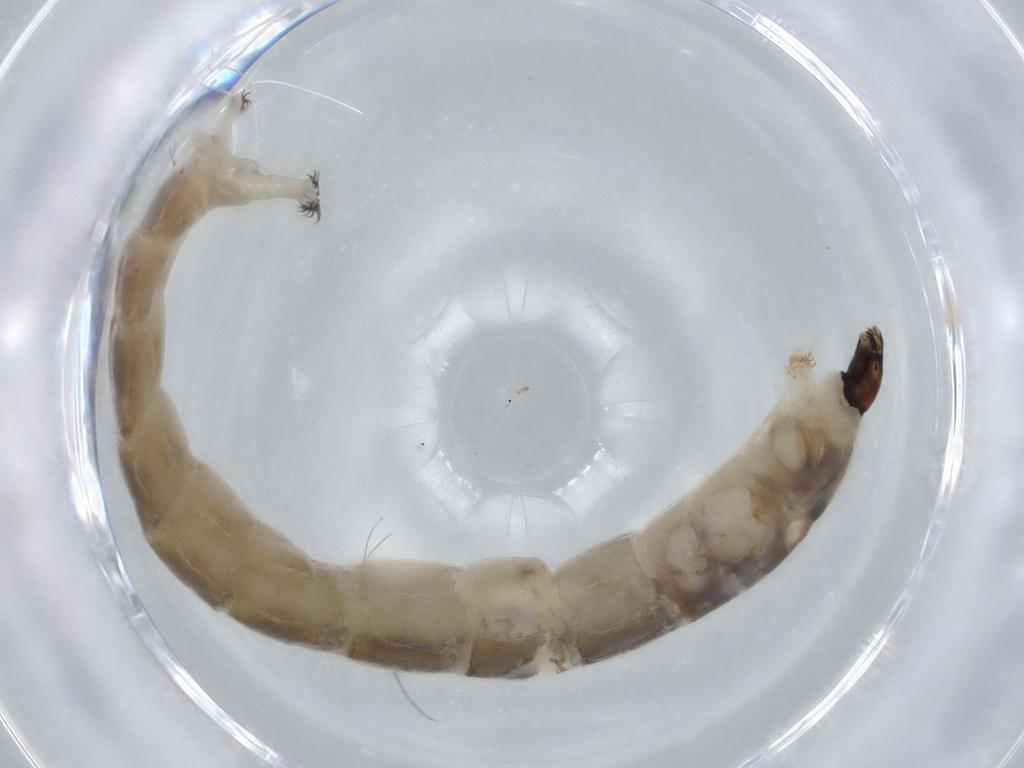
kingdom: Animalia
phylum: Arthropoda
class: Insecta
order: Diptera
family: Chironomidae
